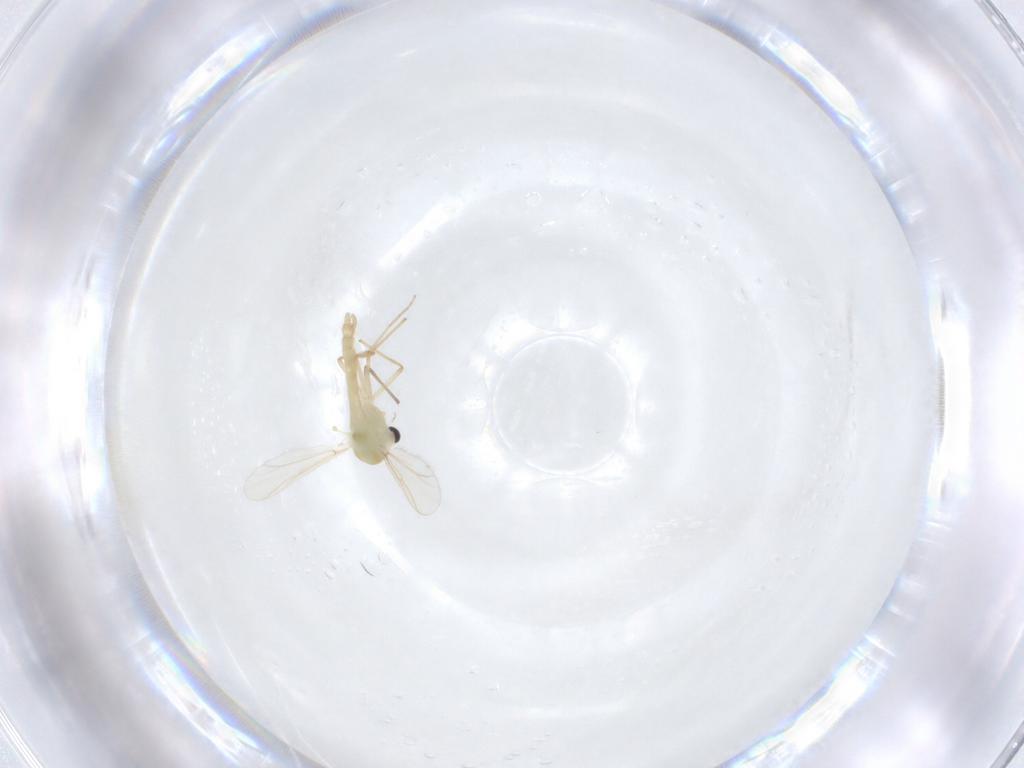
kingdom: Animalia
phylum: Arthropoda
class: Insecta
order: Diptera
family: Chironomidae
